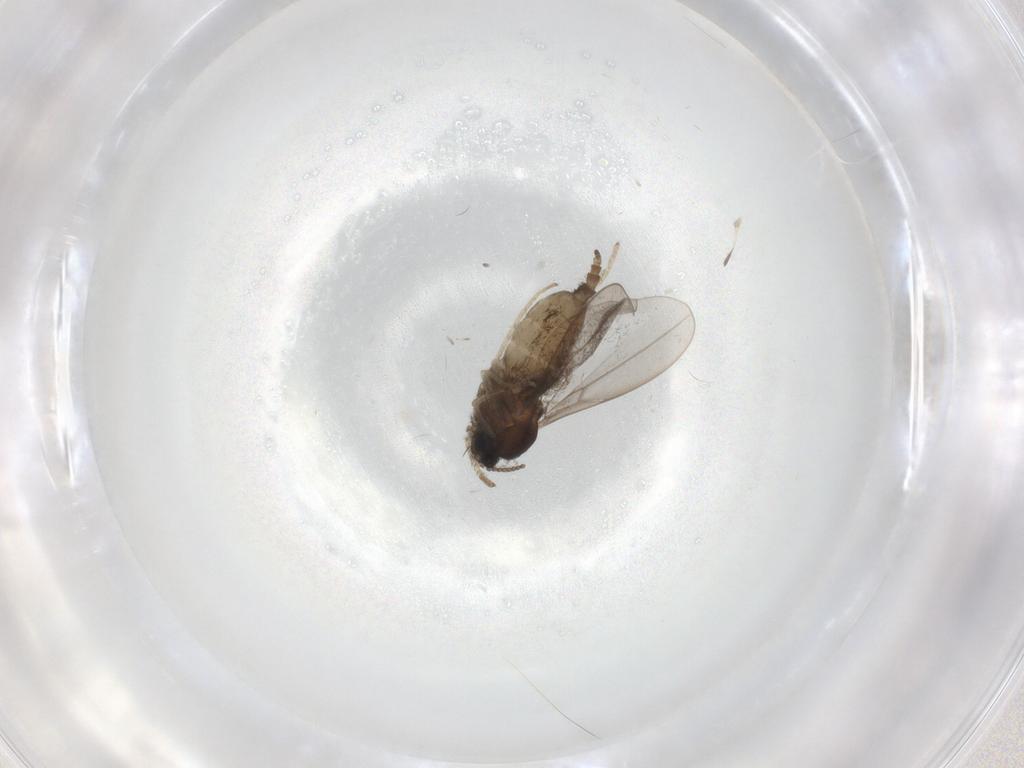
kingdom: Animalia
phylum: Arthropoda
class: Insecta
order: Diptera
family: Cecidomyiidae
